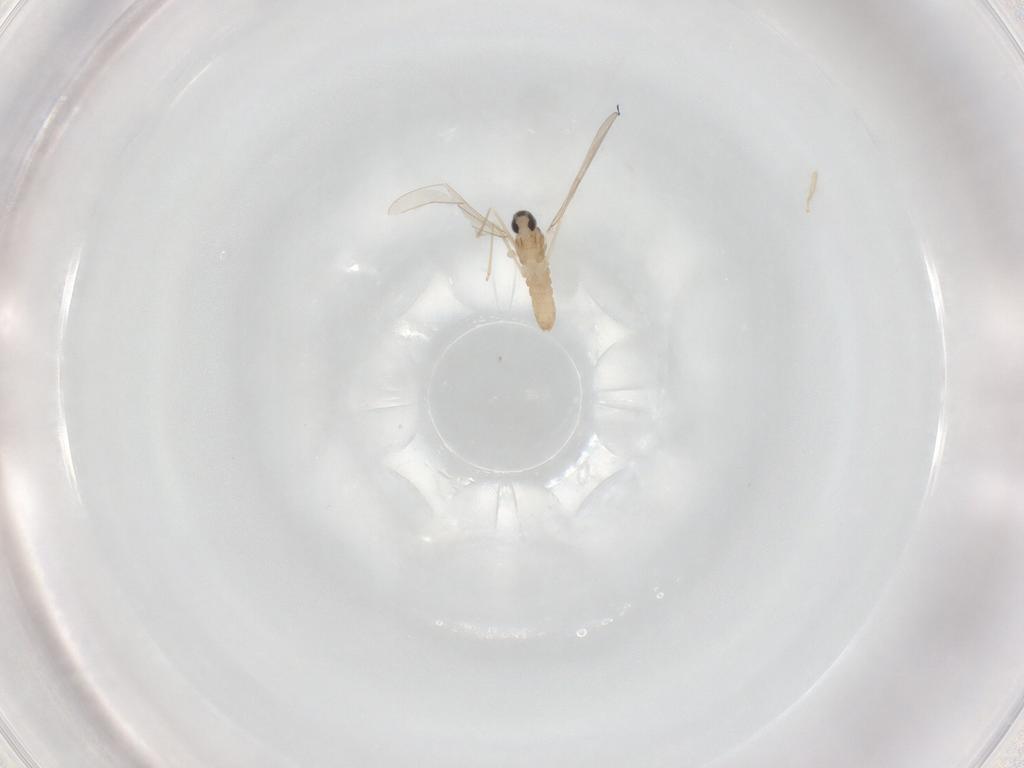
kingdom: Animalia
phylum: Arthropoda
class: Insecta
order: Diptera
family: Cecidomyiidae
